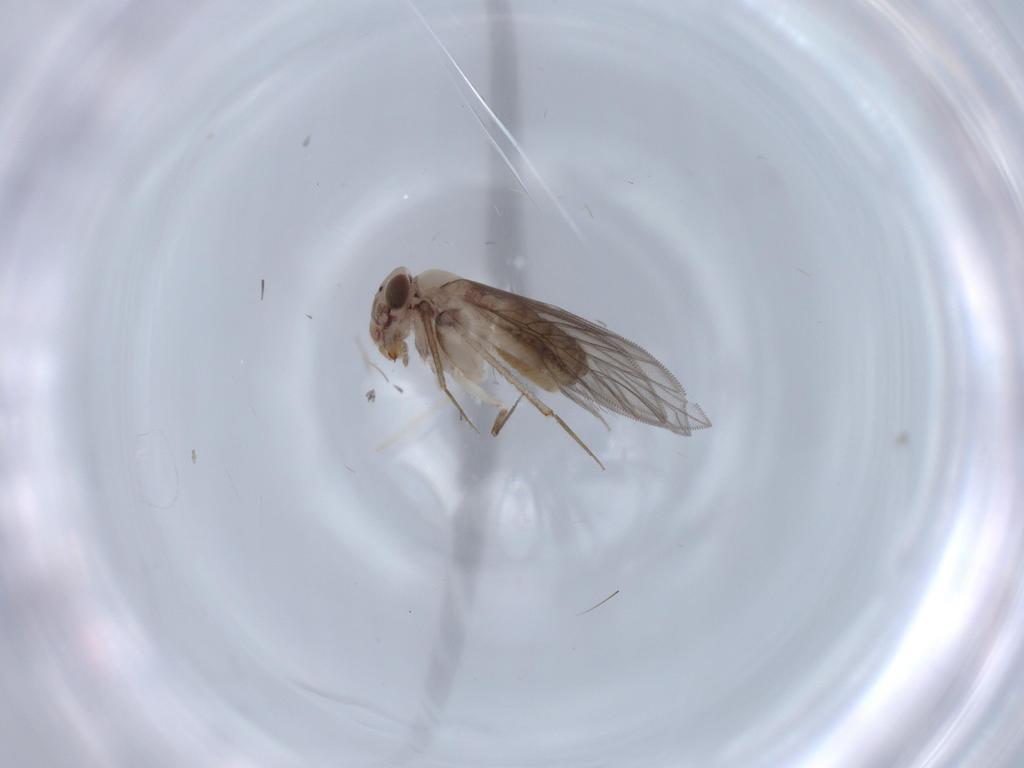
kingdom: Animalia
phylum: Arthropoda
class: Insecta
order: Psocodea
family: Lepidopsocidae
